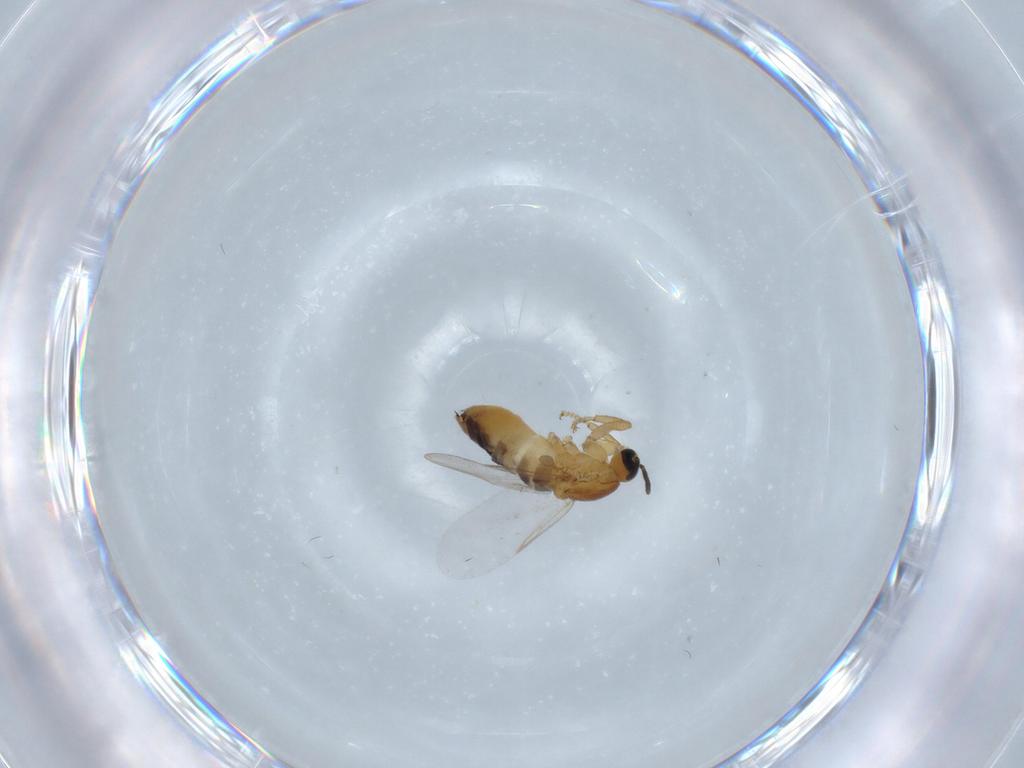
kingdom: Animalia
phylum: Arthropoda
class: Insecta
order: Diptera
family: Scatopsidae
